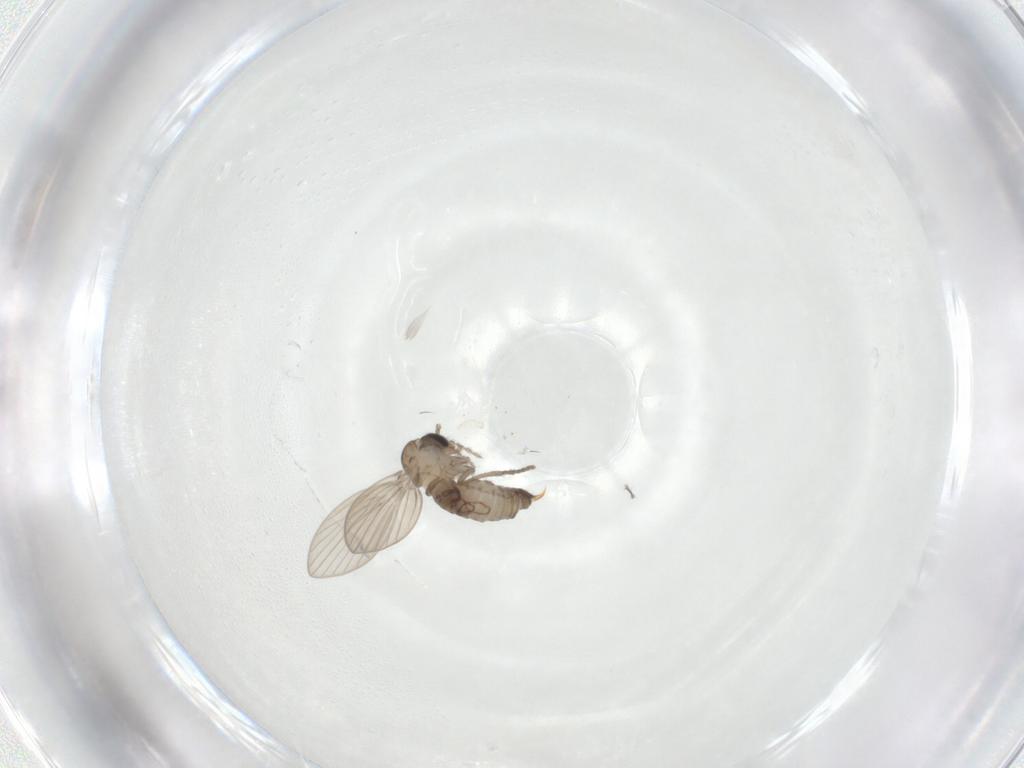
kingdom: Animalia
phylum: Arthropoda
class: Insecta
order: Diptera
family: Psychodidae
